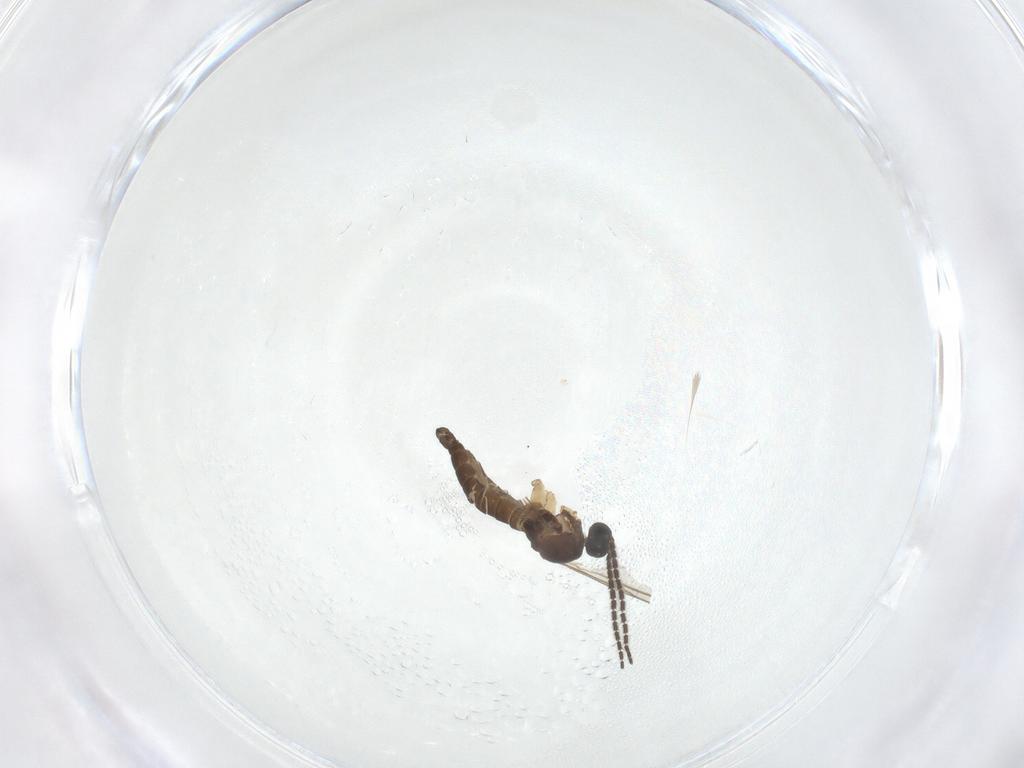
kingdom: Animalia
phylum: Arthropoda
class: Insecta
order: Diptera
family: Sciaridae
